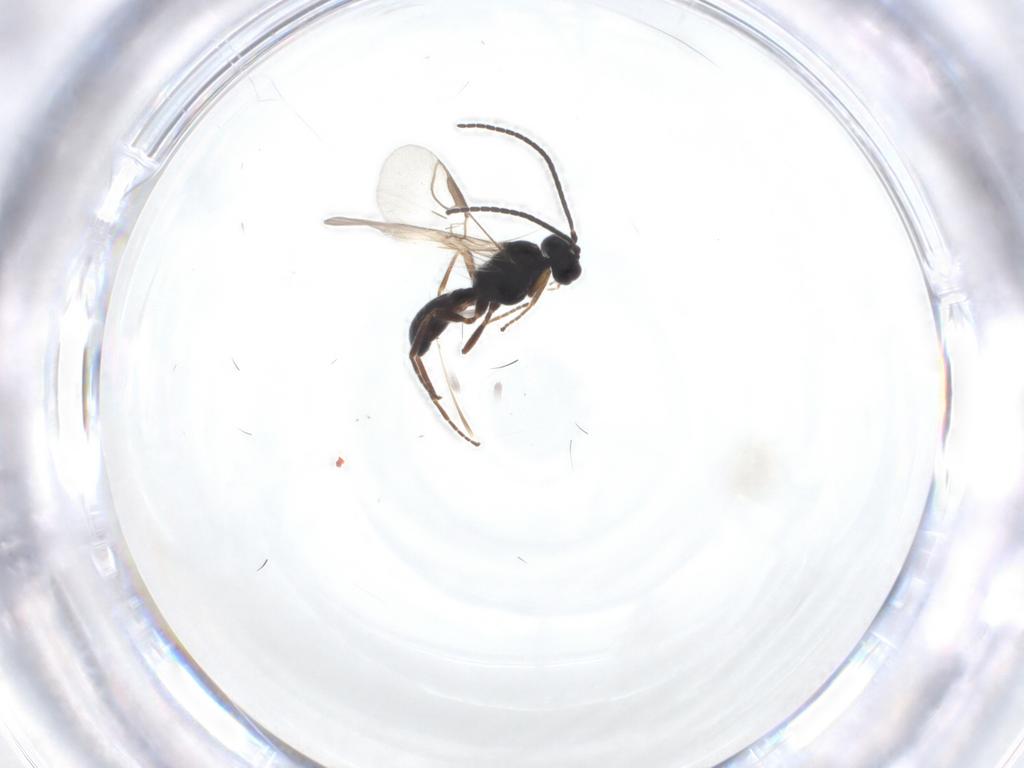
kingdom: Animalia
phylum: Arthropoda
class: Insecta
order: Hymenoptera
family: Braconidae
